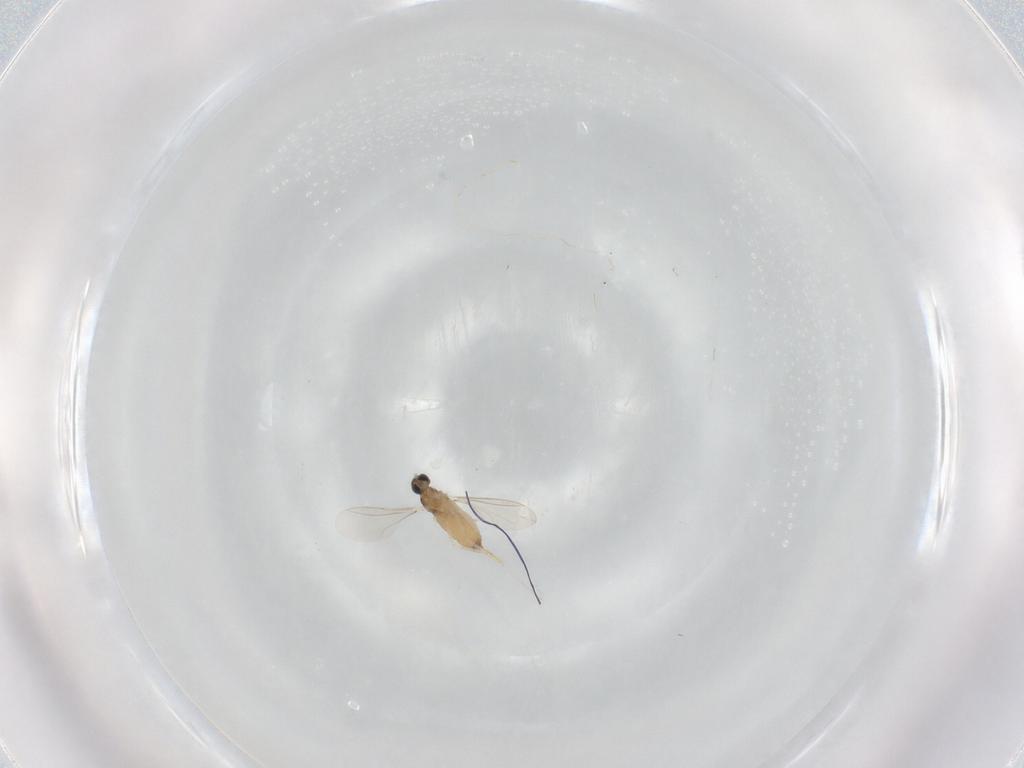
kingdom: Animalia
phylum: Arthropoda
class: Insecta
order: Diptera
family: Cecidomyiidae
